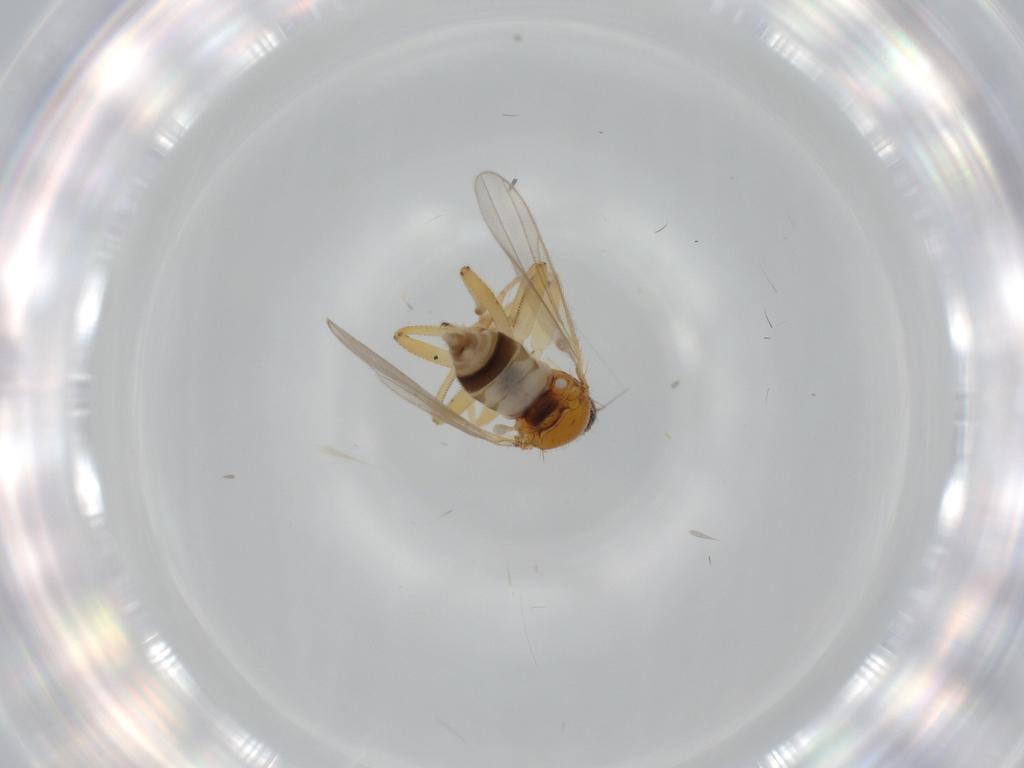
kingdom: Animalia
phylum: Arthropoda
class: Insecta
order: Diptera
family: Hybotidae
